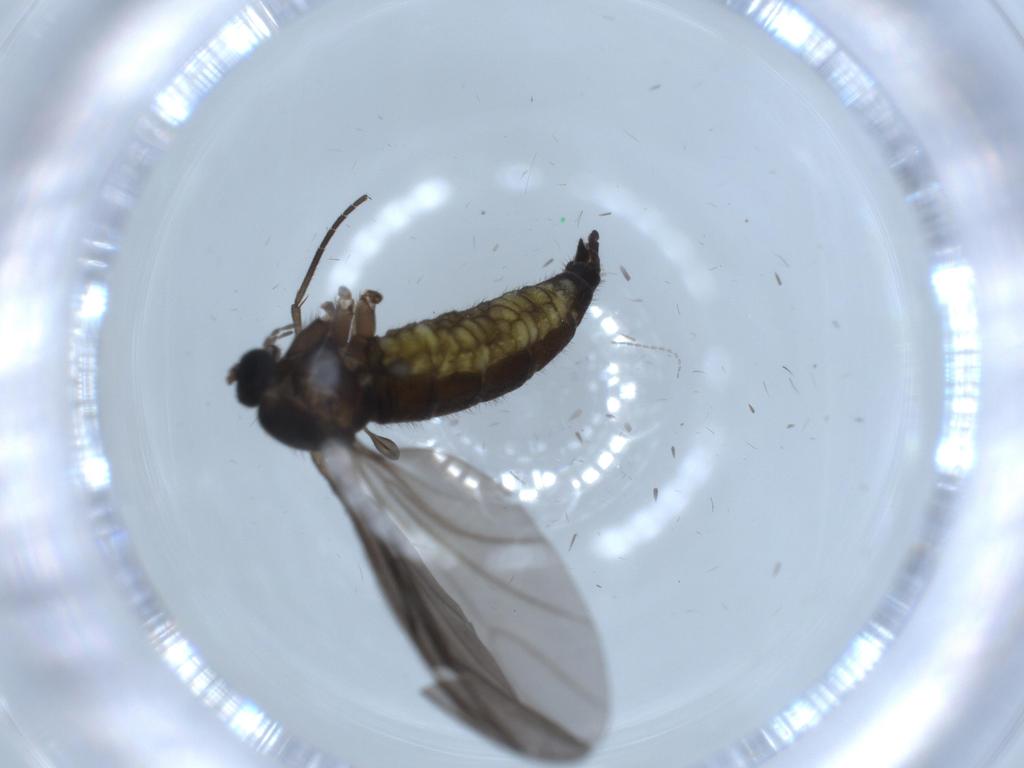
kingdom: Animalia
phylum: Arthropoda
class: Insecta
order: Diptera
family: Sciaridae
